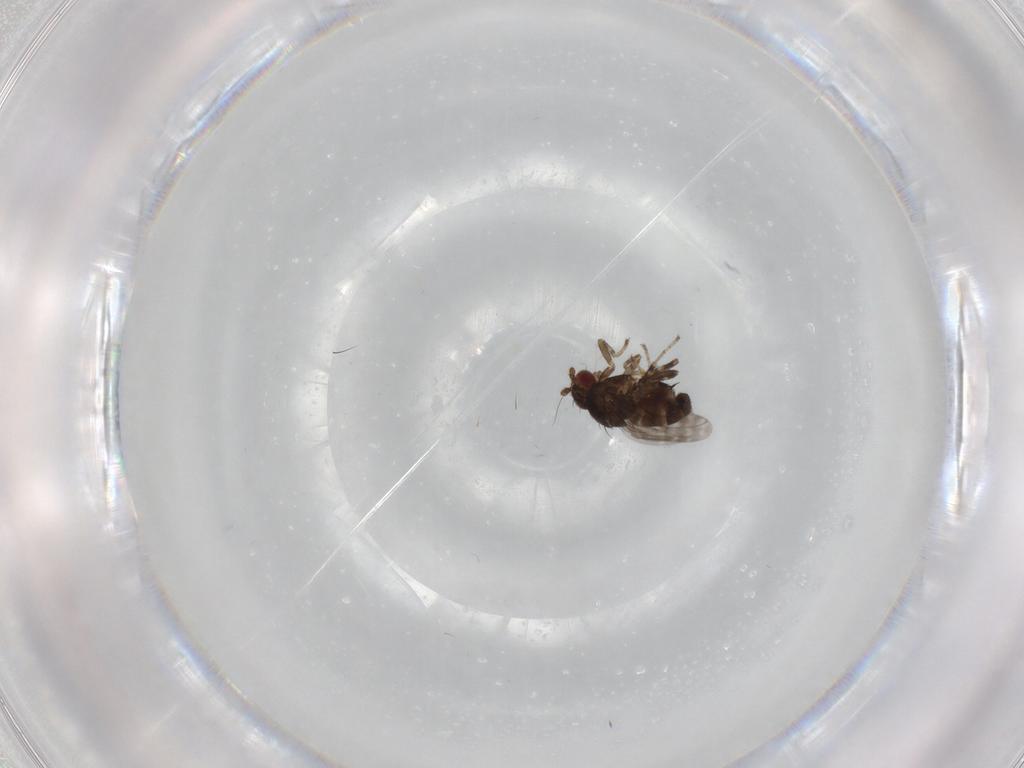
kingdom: Animalia
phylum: Arthropoda
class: Insecta
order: Diptera
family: Sphaeroceridae
